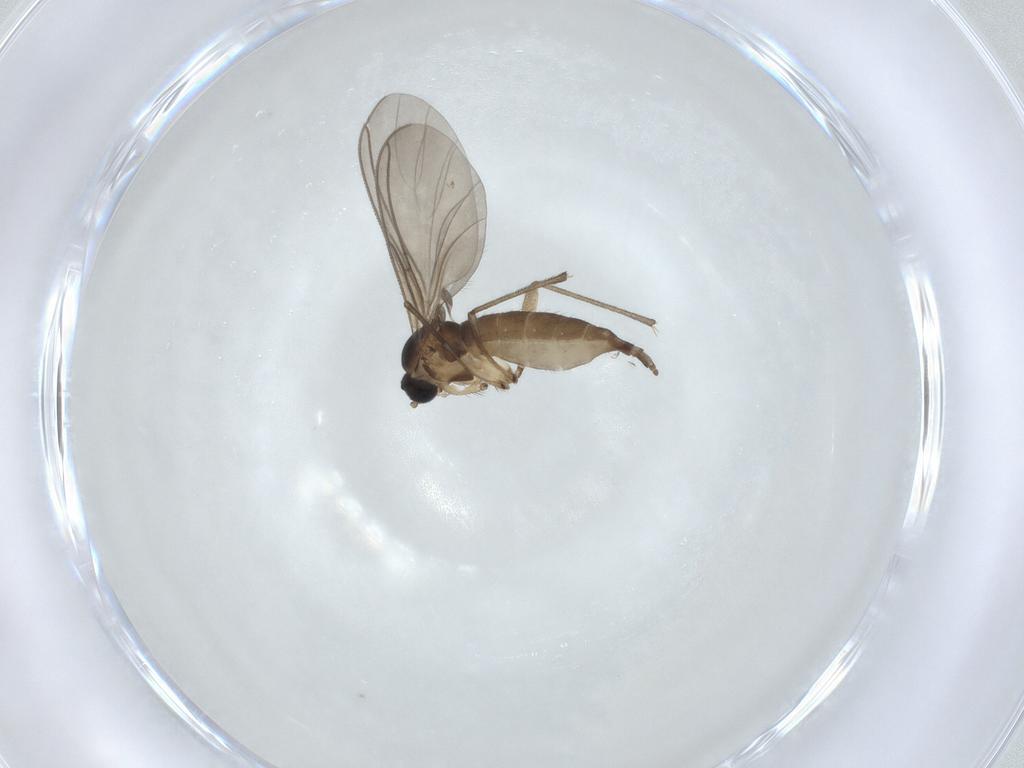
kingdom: Animalia
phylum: Arthropoda
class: Insecta
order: Diptera
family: Sciaridae
